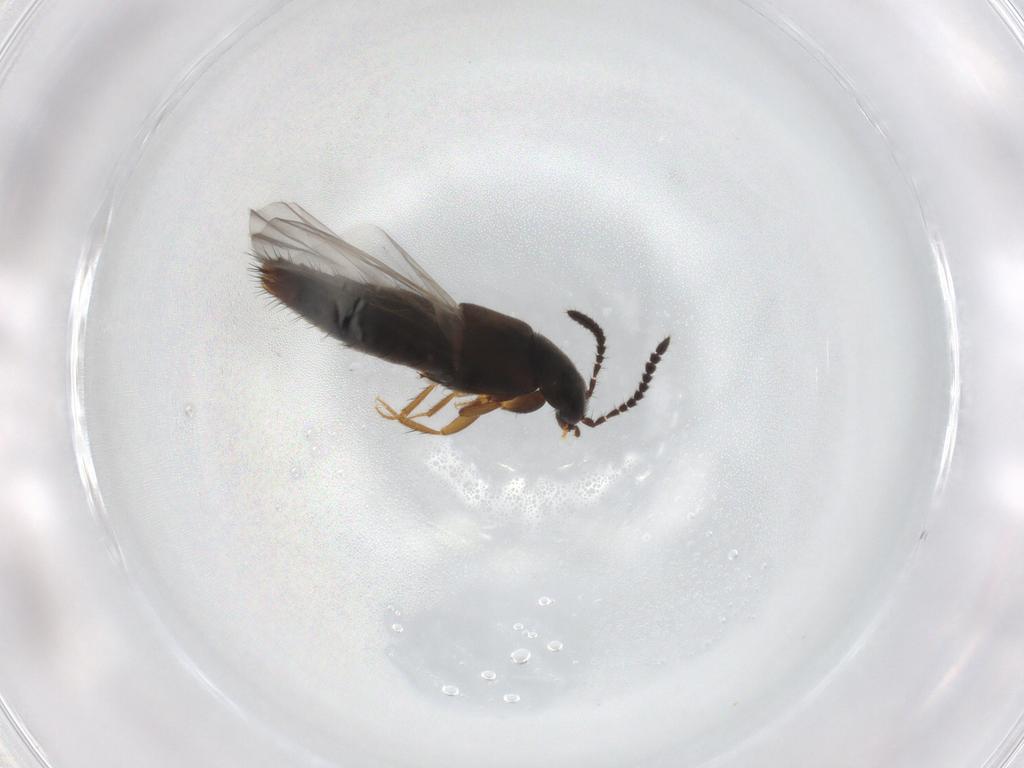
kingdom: Animalia
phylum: Arthropoda
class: Insecta
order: Coleoptera
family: Staphylinidae
